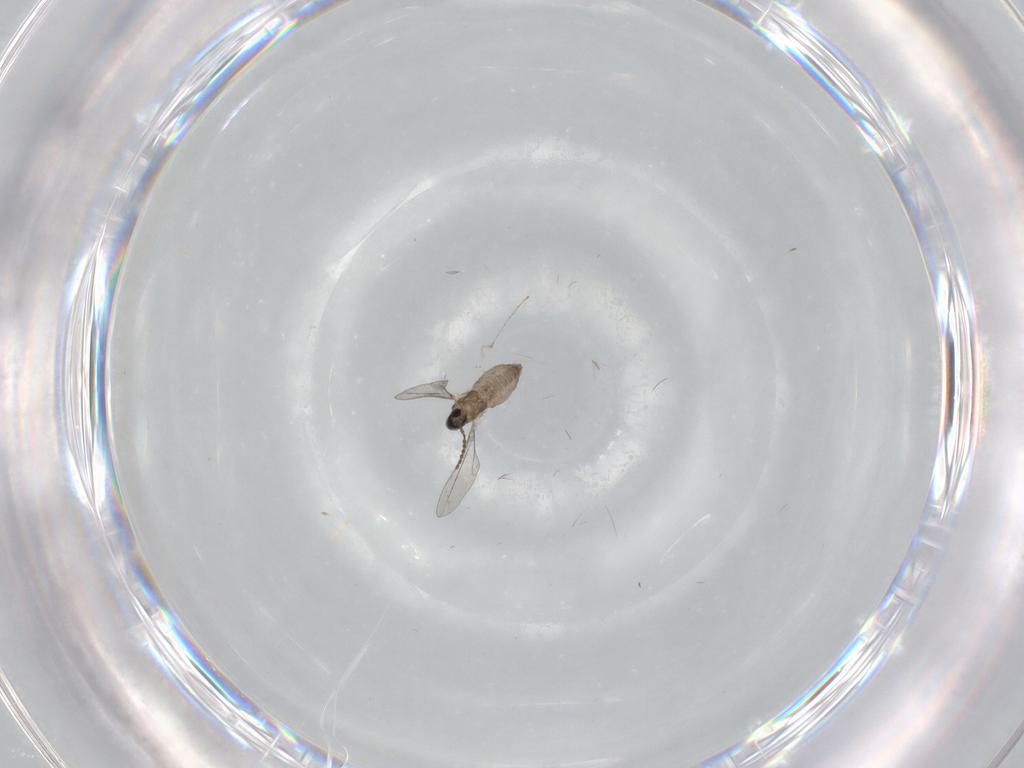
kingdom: Animalia
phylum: Arthropoda
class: Insecta
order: Diptera
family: Cecidomyiidae
